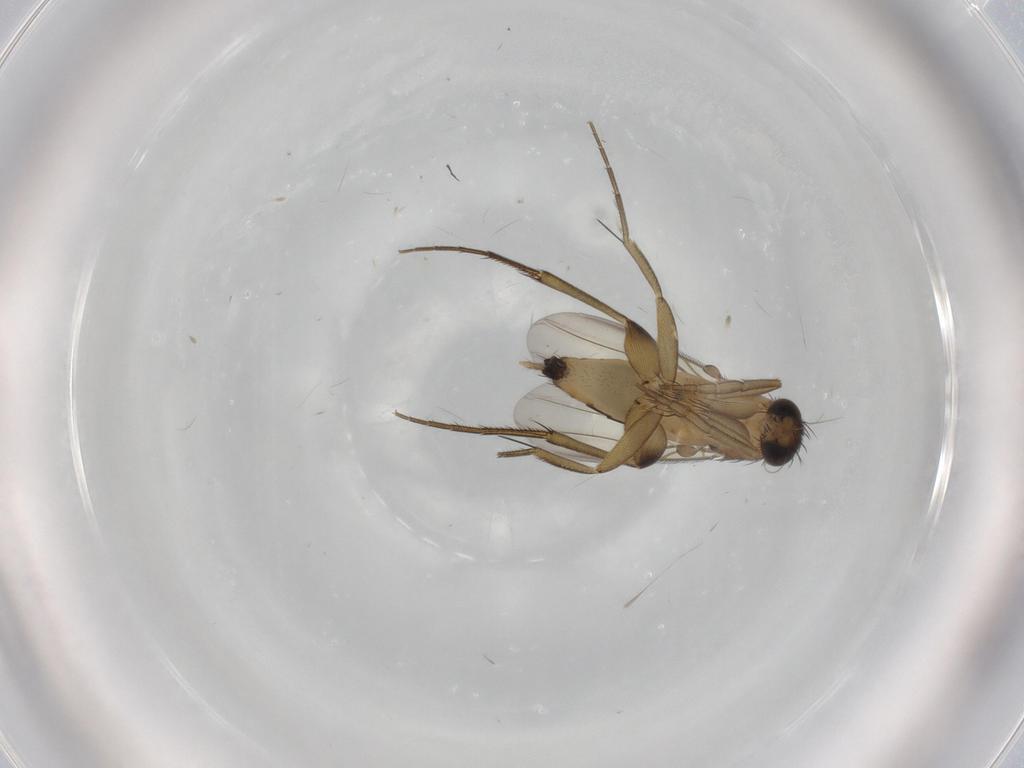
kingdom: Animalia
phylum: Arthropoda
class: Insecta
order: Diptera
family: Phoridae
